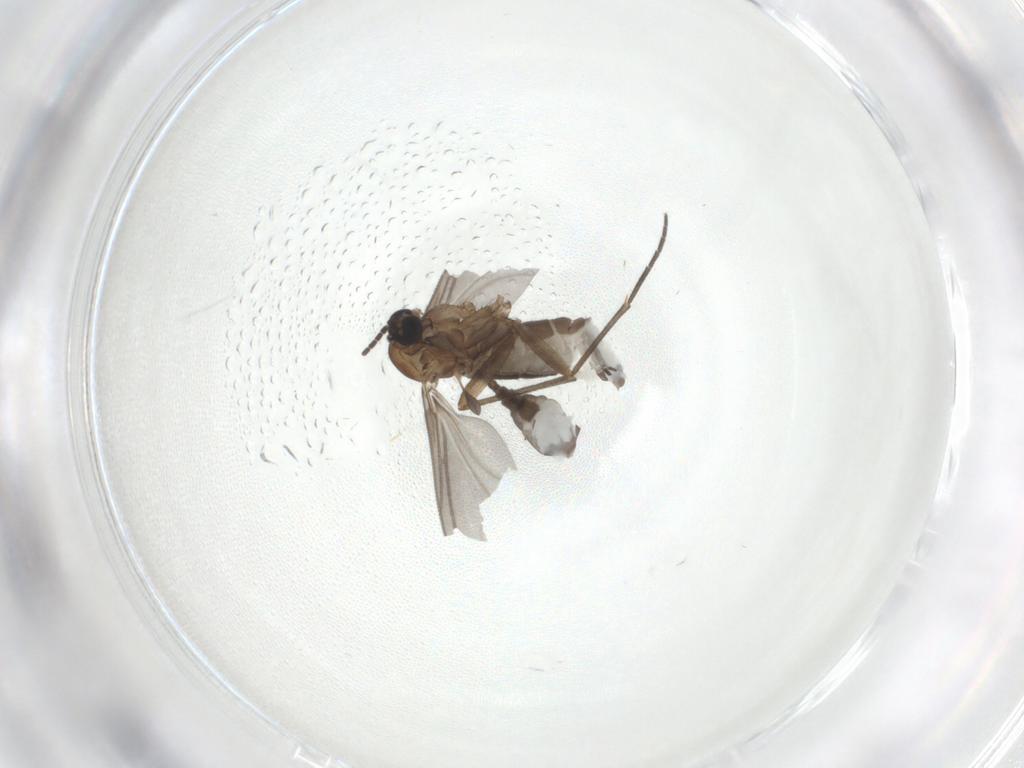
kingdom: Animalia
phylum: Arthropoda
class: Insecta
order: Diptera
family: Sciaridae
